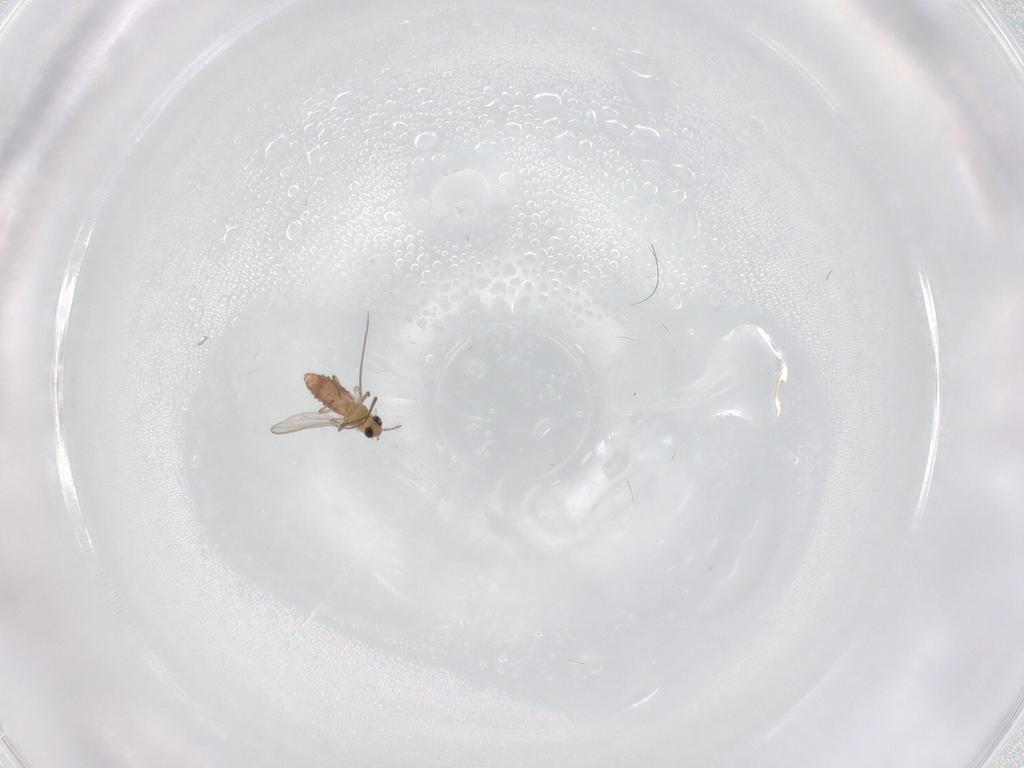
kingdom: Animalia
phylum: Arthropoda
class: Insecta
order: Diptera
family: Chironomidae
